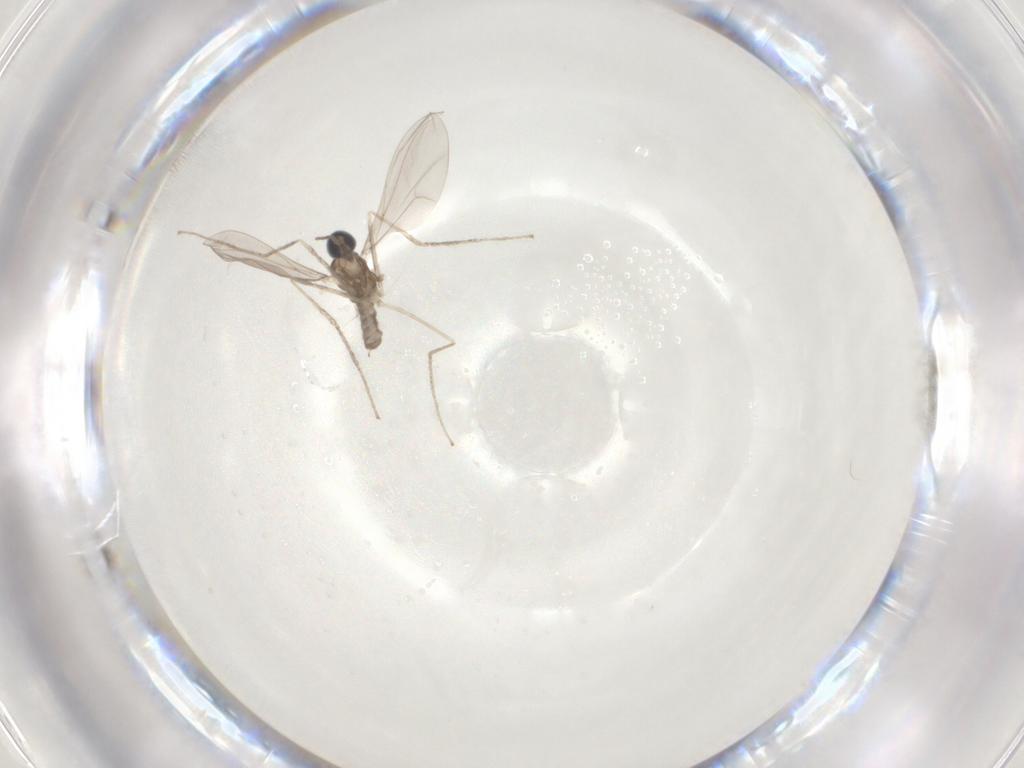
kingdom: Animalia
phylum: Arthropoda
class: Insecta
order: Diptera
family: Cecidomyiidae
